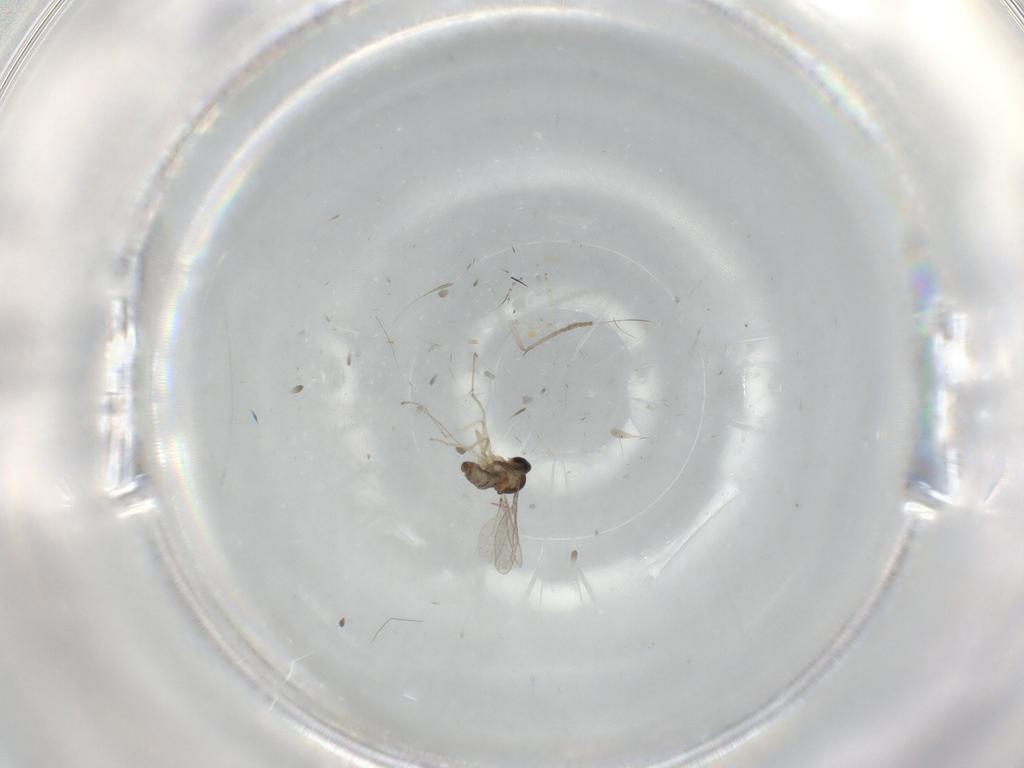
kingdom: Animalia
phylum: Arthropoda
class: Insecta
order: Diptera
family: Cecidomyiidae
